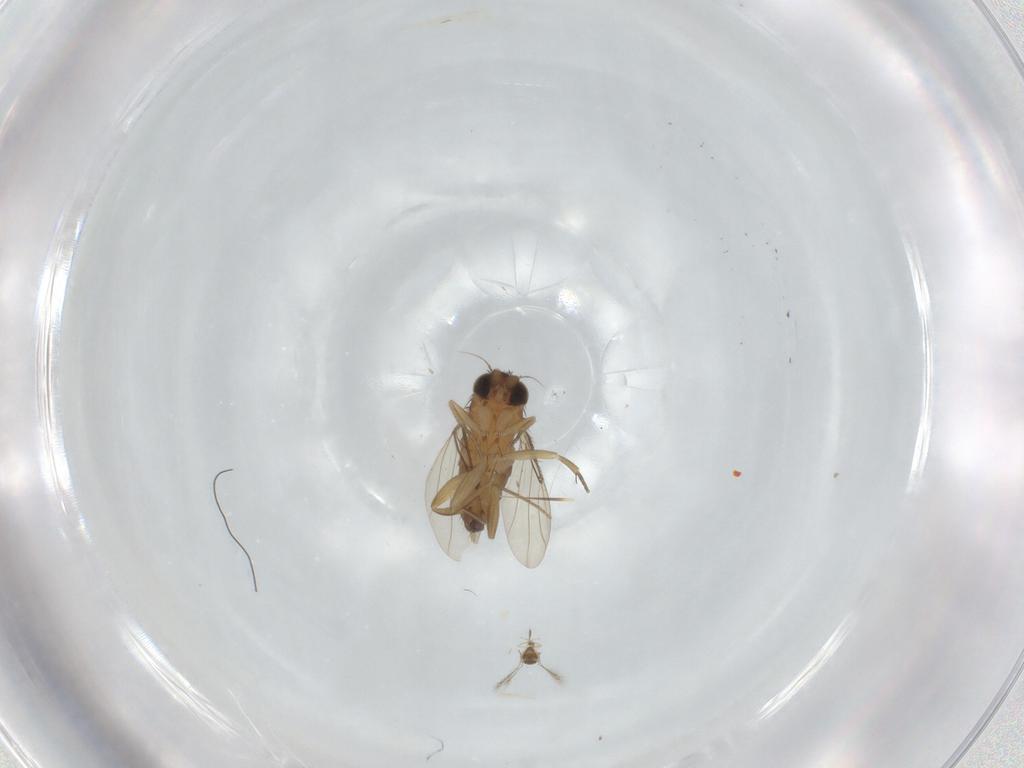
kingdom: Animalia
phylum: Arthropoda
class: Insecta
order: Diptera
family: Phoridae
